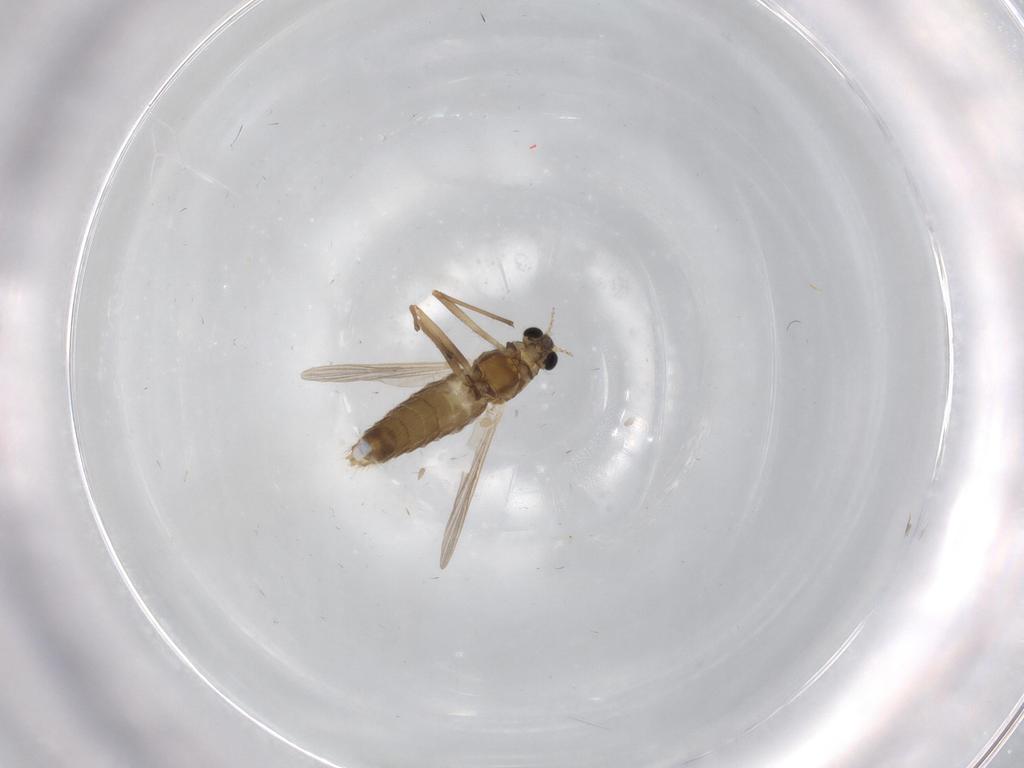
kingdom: Animalia
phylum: Arthropoda
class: Insecta
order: Diptera
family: Chironomidae
